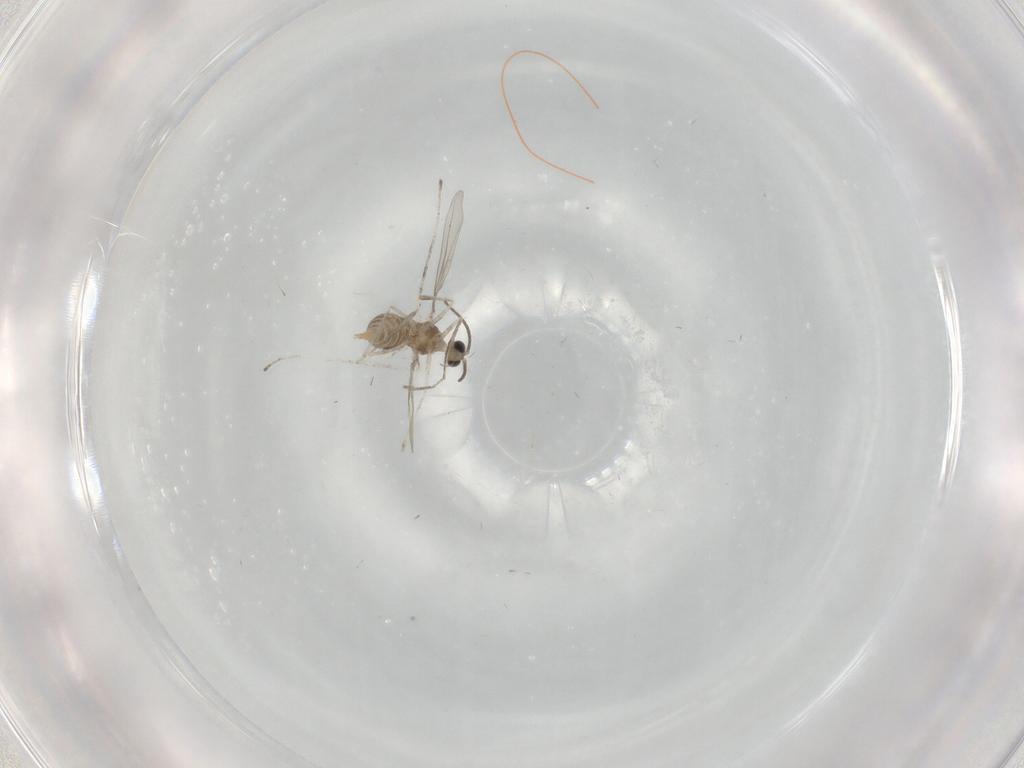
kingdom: Animalia
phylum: Arthropoda
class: Insecta
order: Diptera
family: Cecidomyiidae
